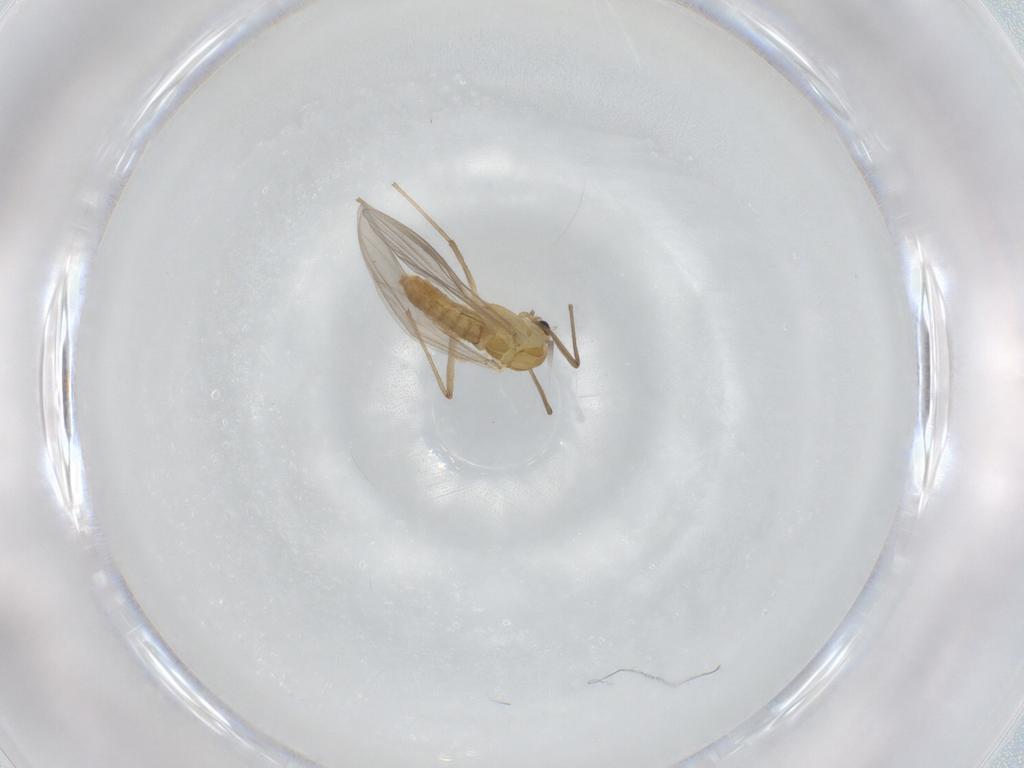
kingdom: Animalia
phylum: Arthropoda
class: Insecta
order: Diptera
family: Chironomidae
